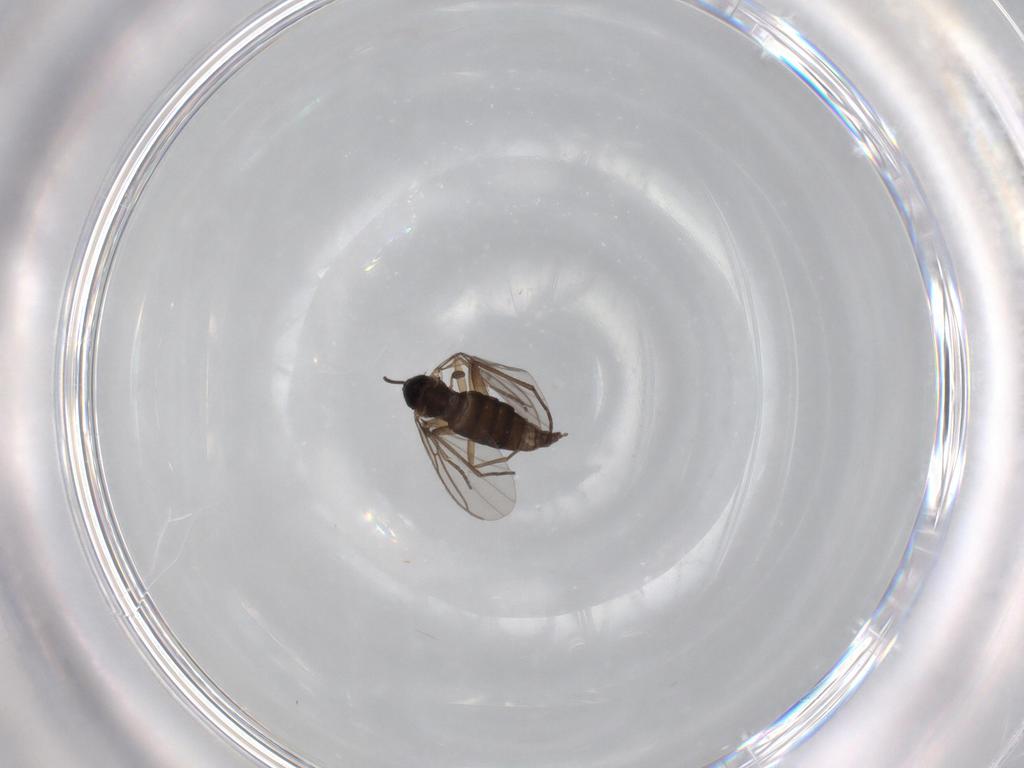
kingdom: Animalia
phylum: Arthropoda
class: Insecta
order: Diptera
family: Sciaridae
